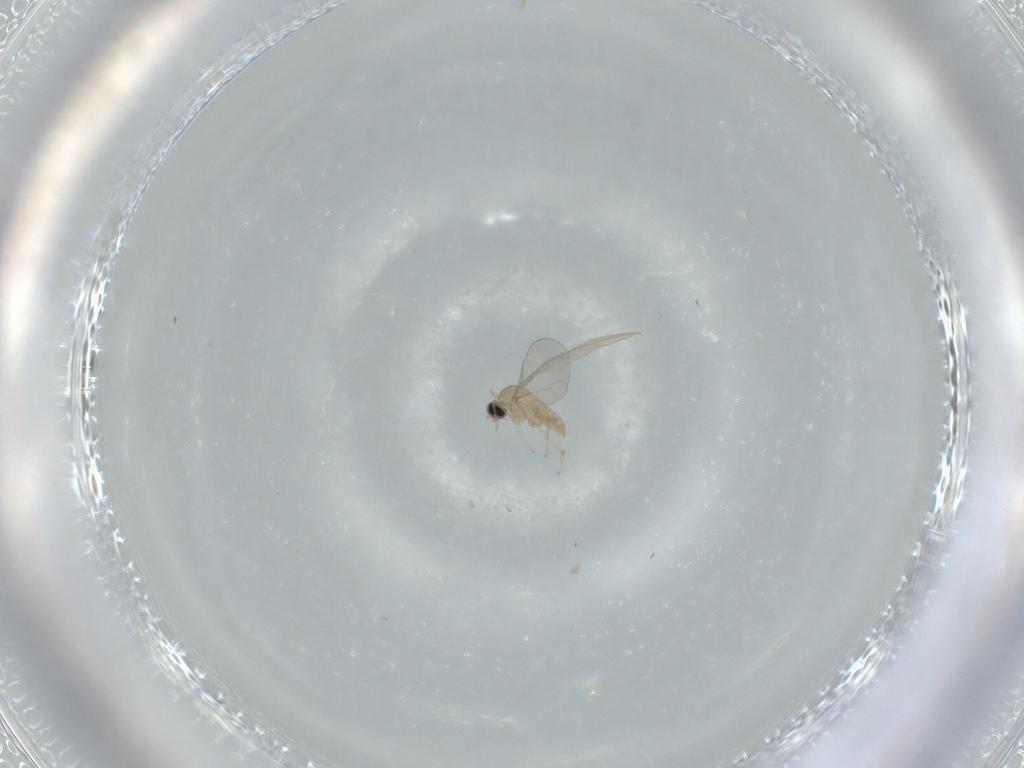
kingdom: Animalia
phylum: Arthropoda
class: Insecta
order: Diptera
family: Cecidomyiidae
